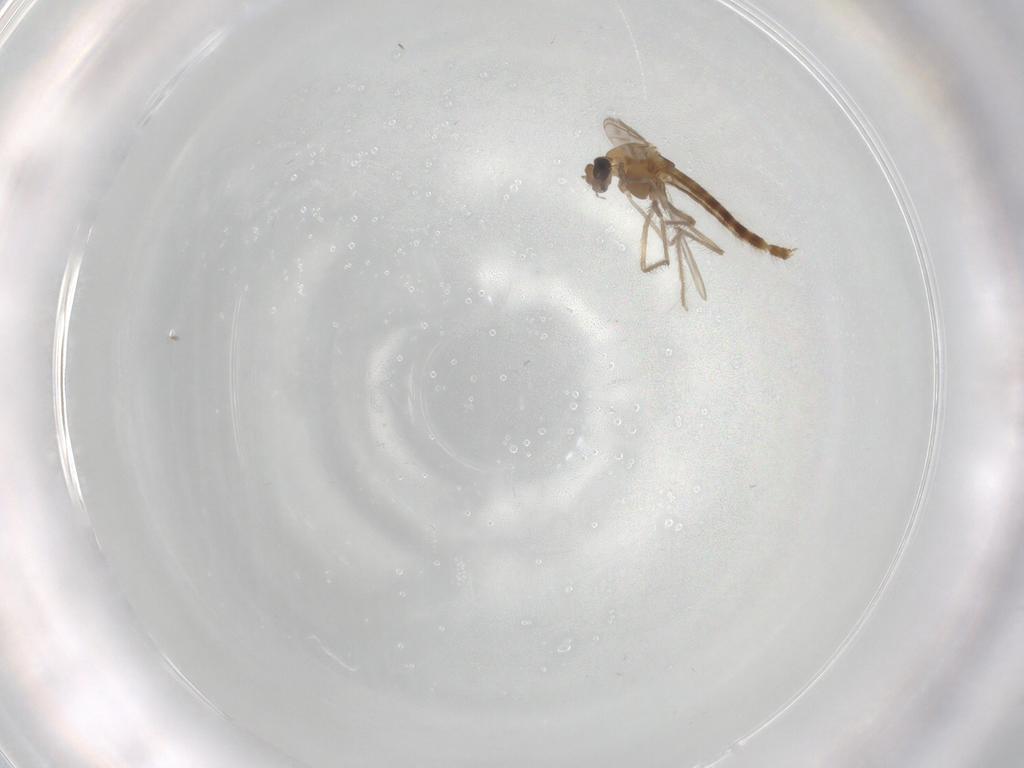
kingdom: Animalia
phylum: Arthropoda
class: Insecta
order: Diptera
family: Chironomidae
